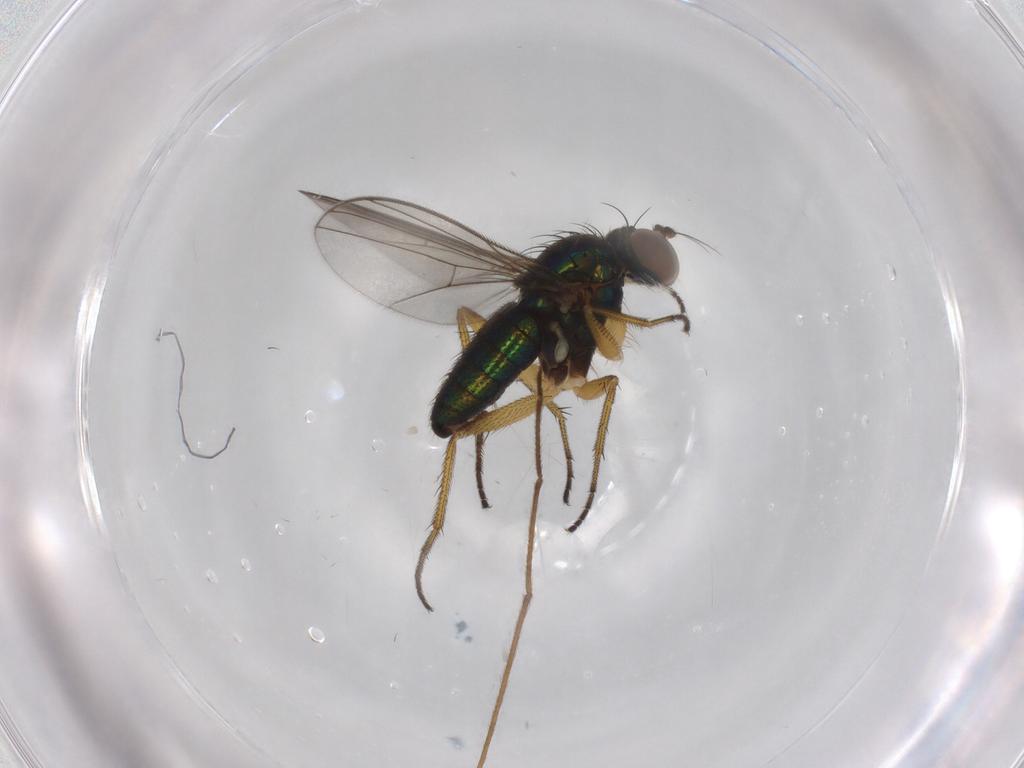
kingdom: Animalia
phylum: Arthropoda
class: Insecta
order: Diptera
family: Dolichopodidae
